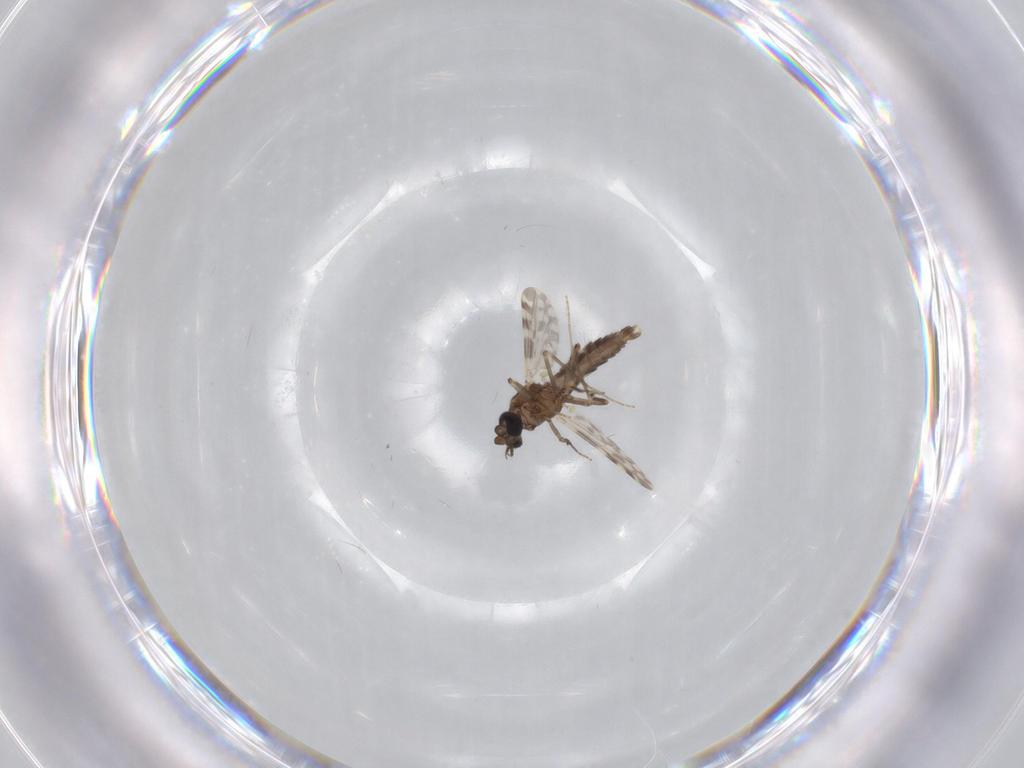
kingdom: Animalia
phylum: Arthropoda
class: Insecta
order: Diptera
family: Ceratopogonidae
